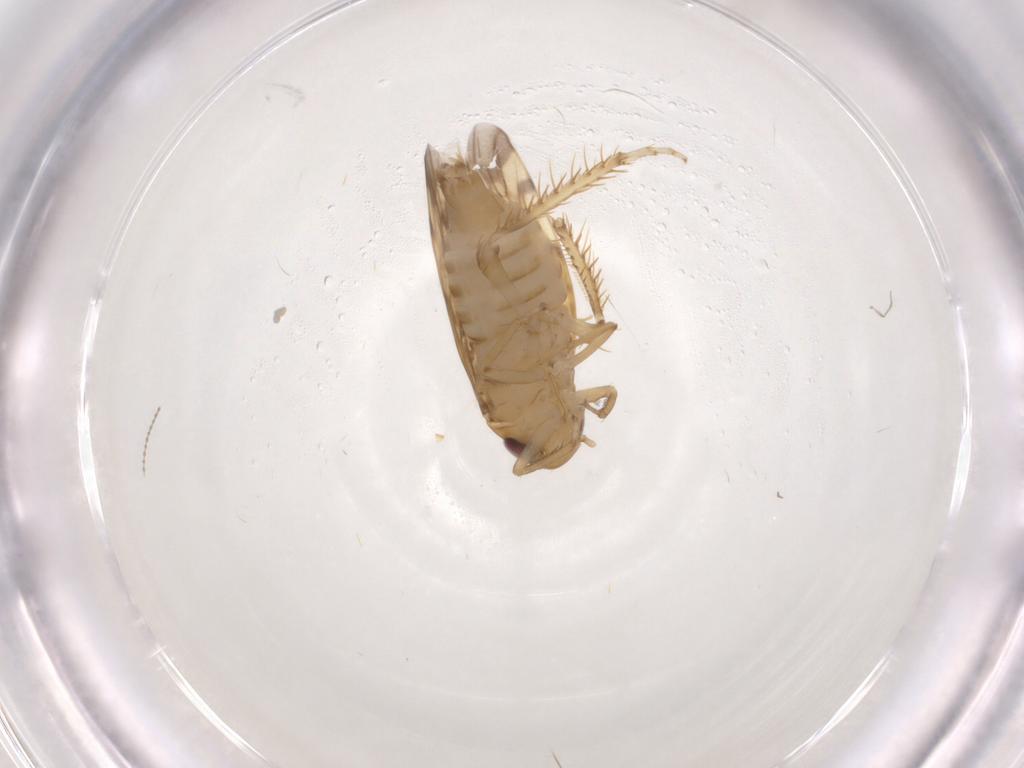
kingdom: Animalia
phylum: Arthropoda
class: Insecta
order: Hemiptera
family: Cicadellidae
